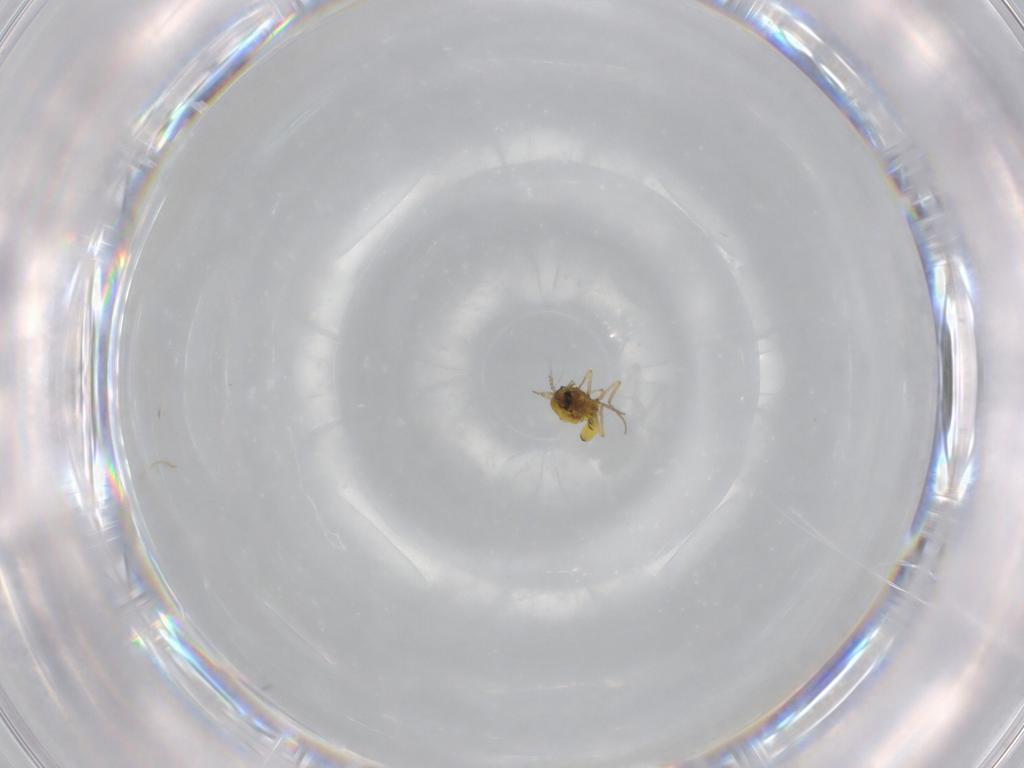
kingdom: Animalia
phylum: Arthropoda
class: Insecta
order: Diptera
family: Ceratopogonidae
